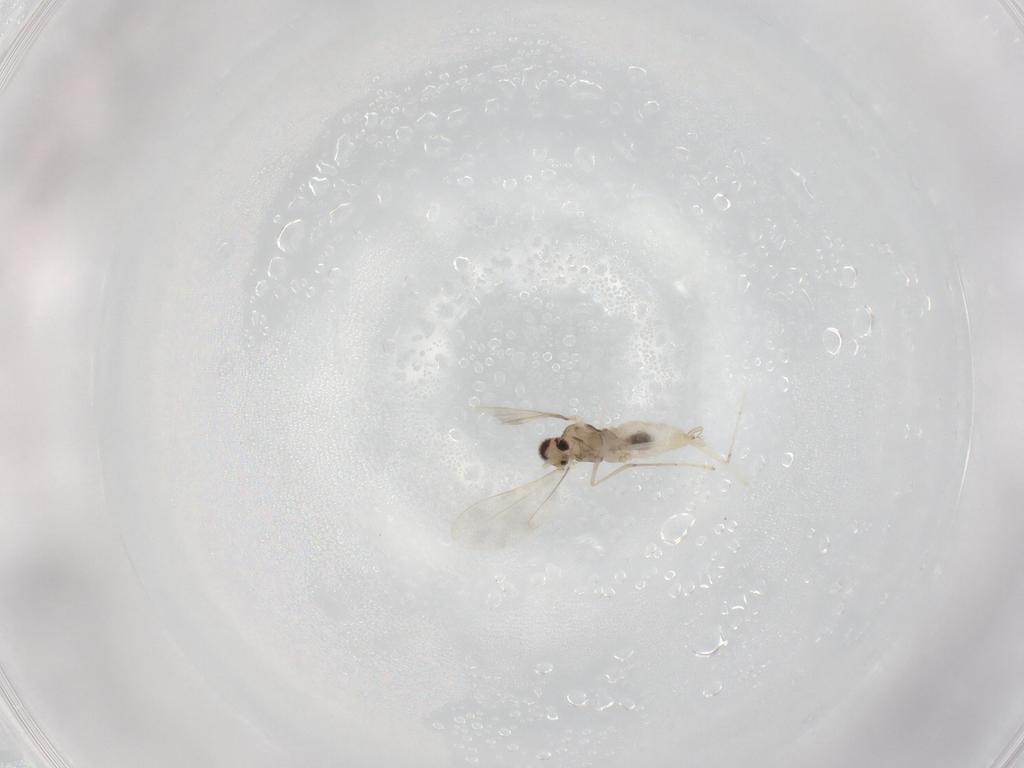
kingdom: Animalia
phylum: Arthropoda
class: Insecta
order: Diptera
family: Cecidomyiidae
